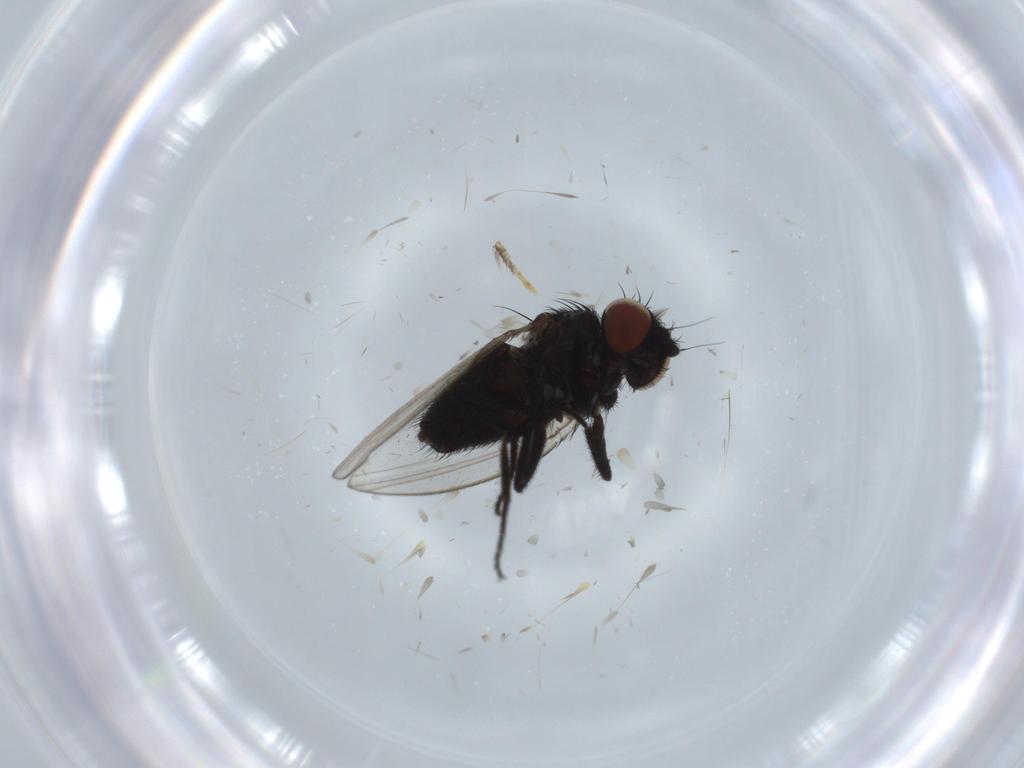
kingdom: Animalia
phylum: Arthropoda
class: Insecta
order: Diptera
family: Milichiidae
